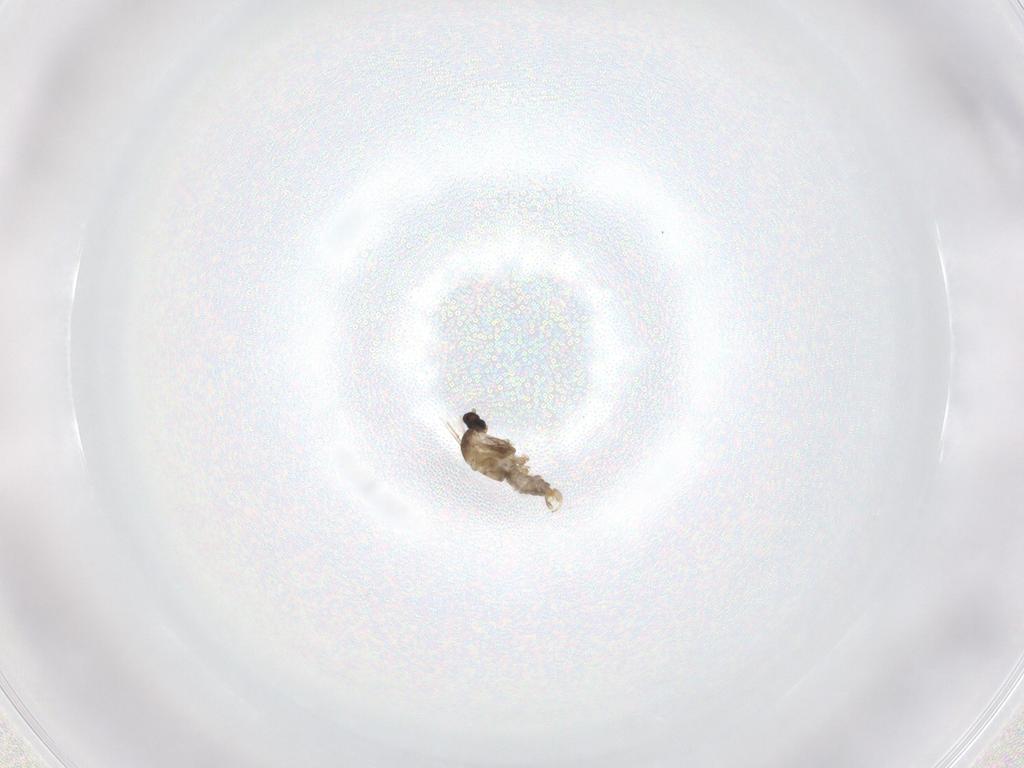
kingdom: Animalia
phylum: Arthropoda
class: Insecta
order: Diptera
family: Cecidomyiidae
